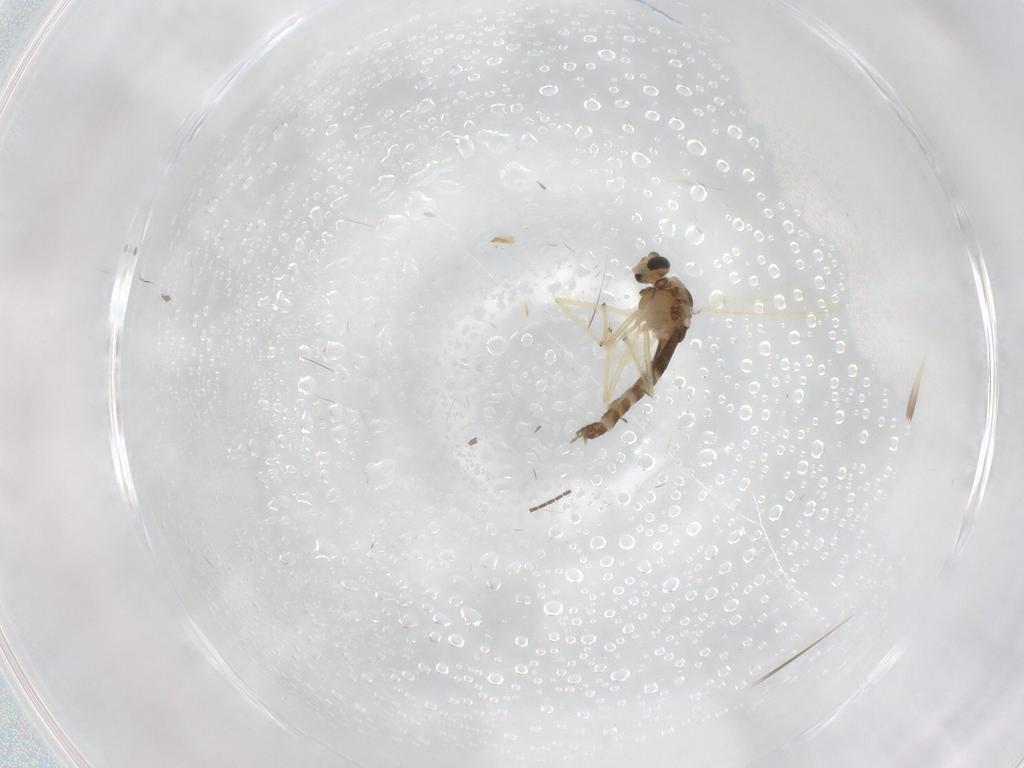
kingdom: Animalia
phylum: Arthropoda
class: Insecta
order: Diptera
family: Chironomidae
